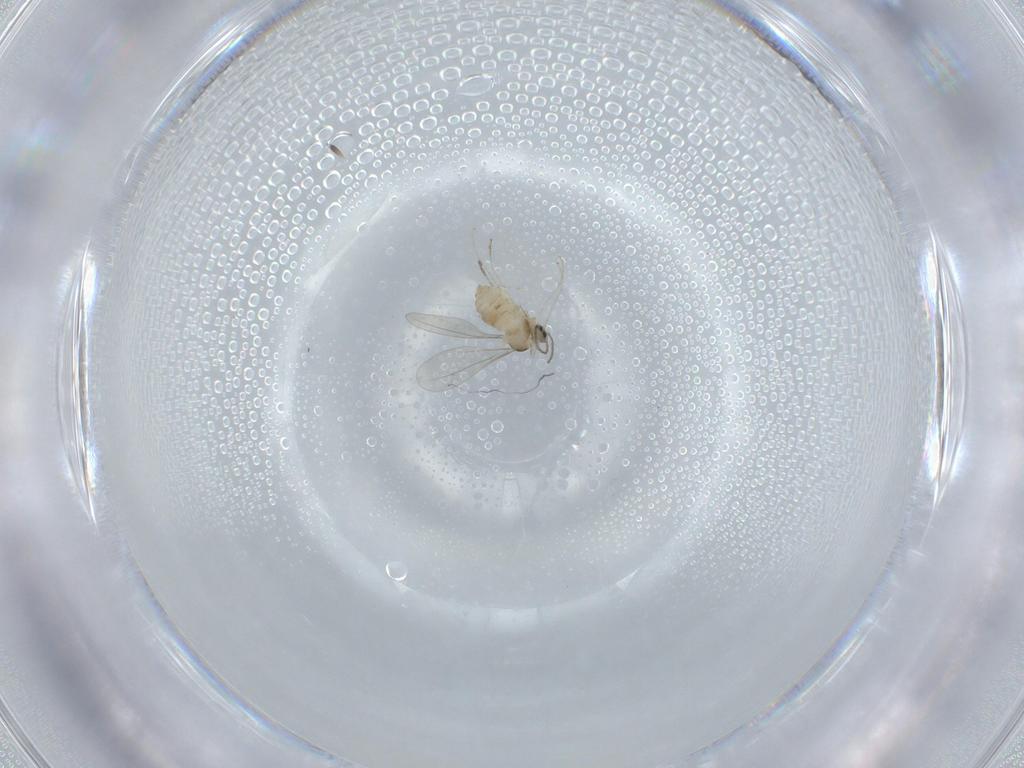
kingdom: Animalia
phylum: Arthropoda
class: Insecta
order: Diptera
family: Cecidomyiidae
